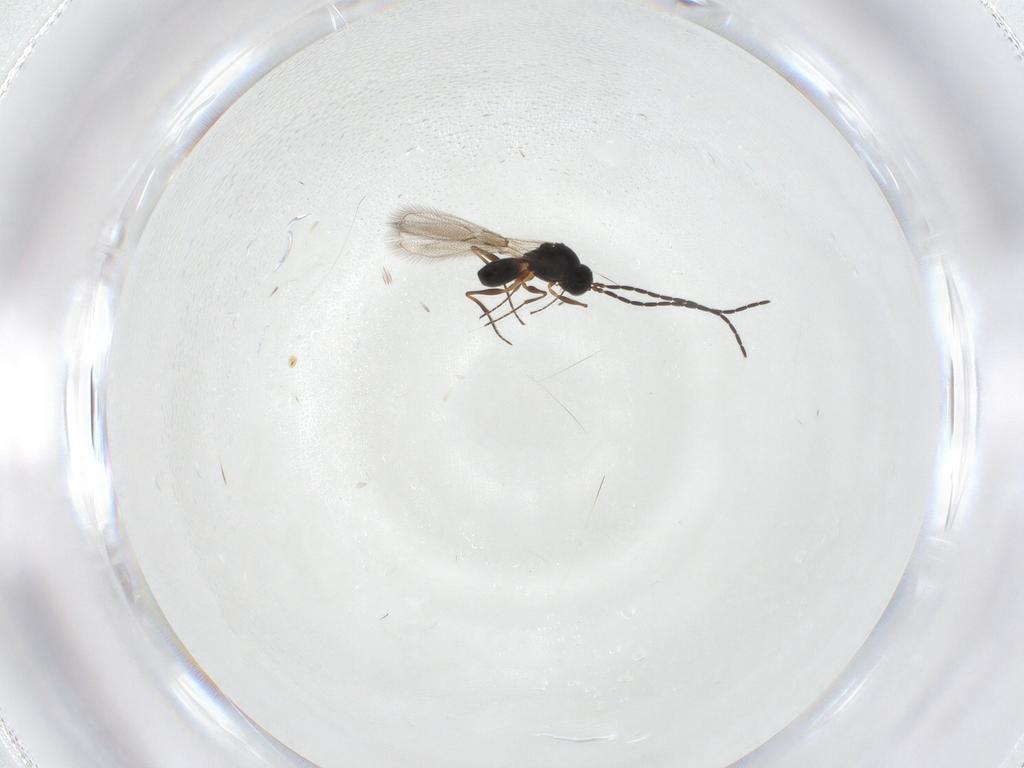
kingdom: Animalia
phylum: Arthropoda
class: Insecta
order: Hymenoptera
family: Figitidae
